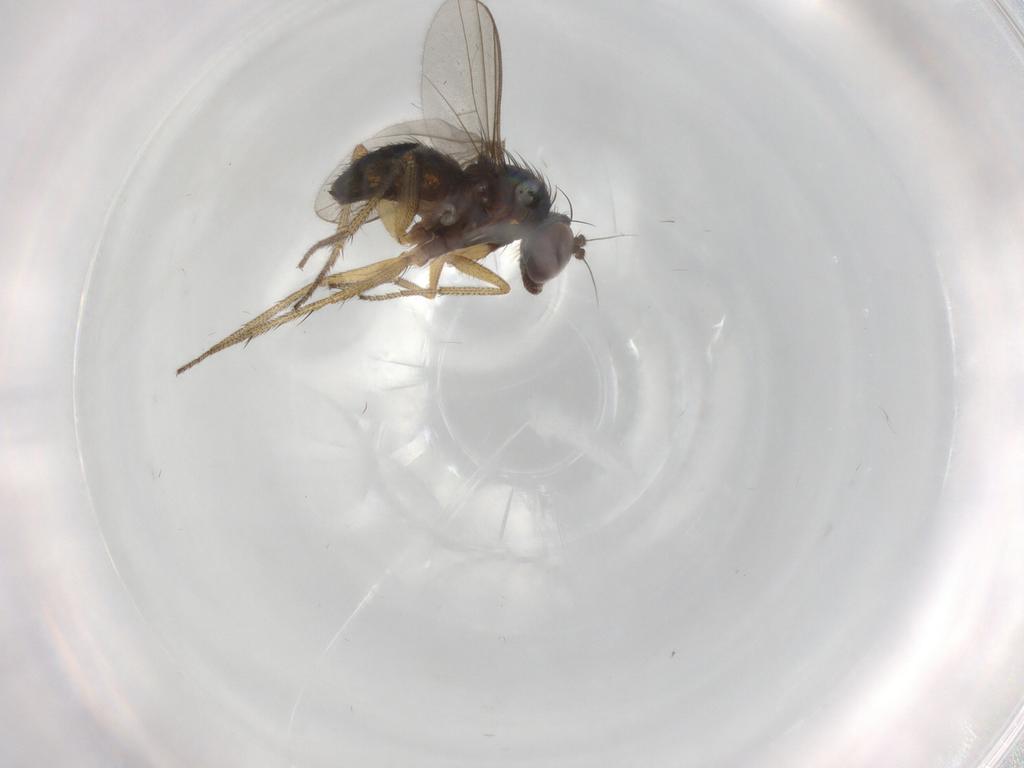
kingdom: Animalia
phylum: Arthropoda
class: Insecta
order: Diptera
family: Dolichopodidae
